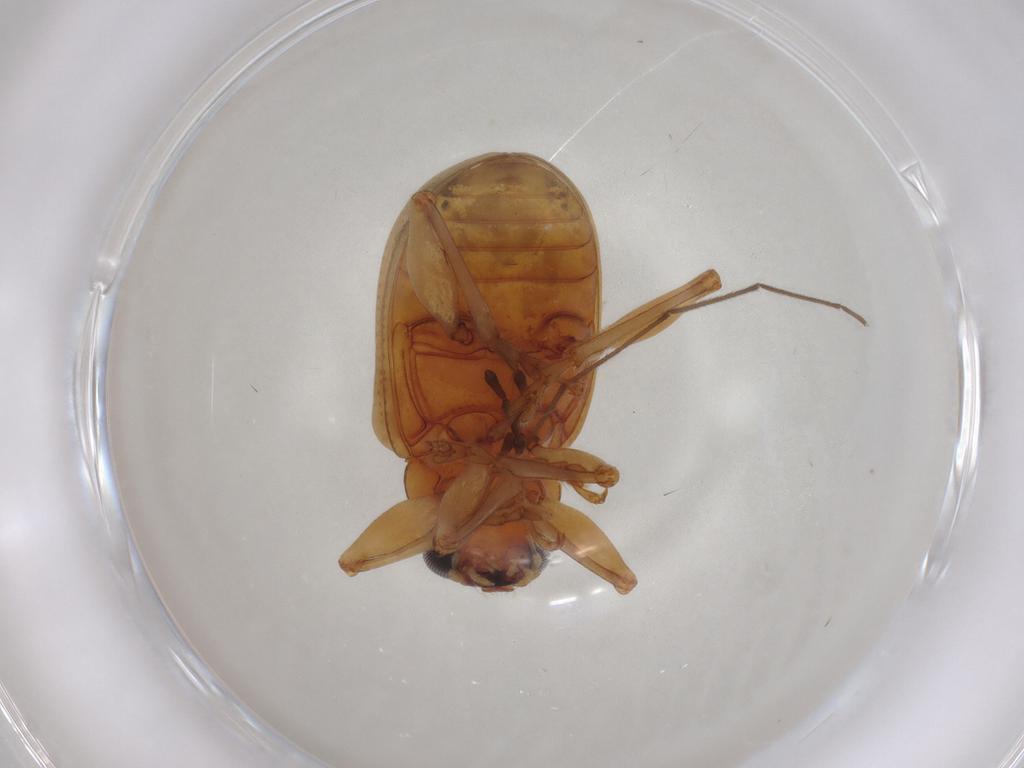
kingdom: Animalia
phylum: Arthropoda
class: Insecta
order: Coleoptera
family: Chrysomelidae
